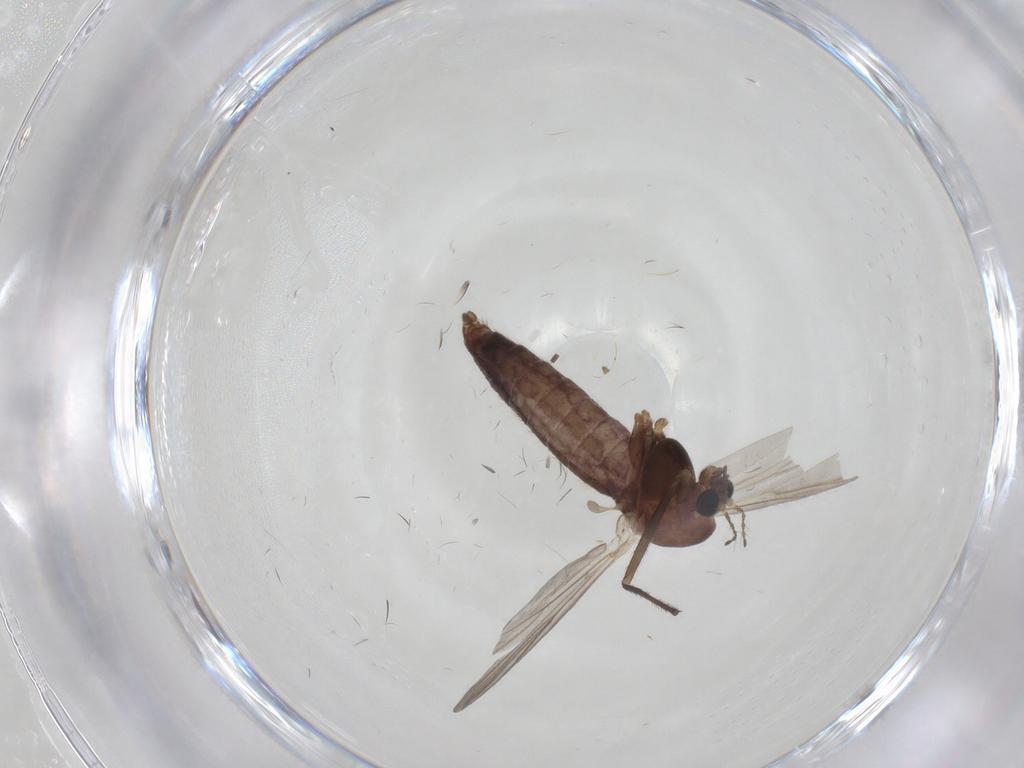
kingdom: Animalia
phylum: Arthropoda
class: Insecta
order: Diptera
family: Chironomidae
